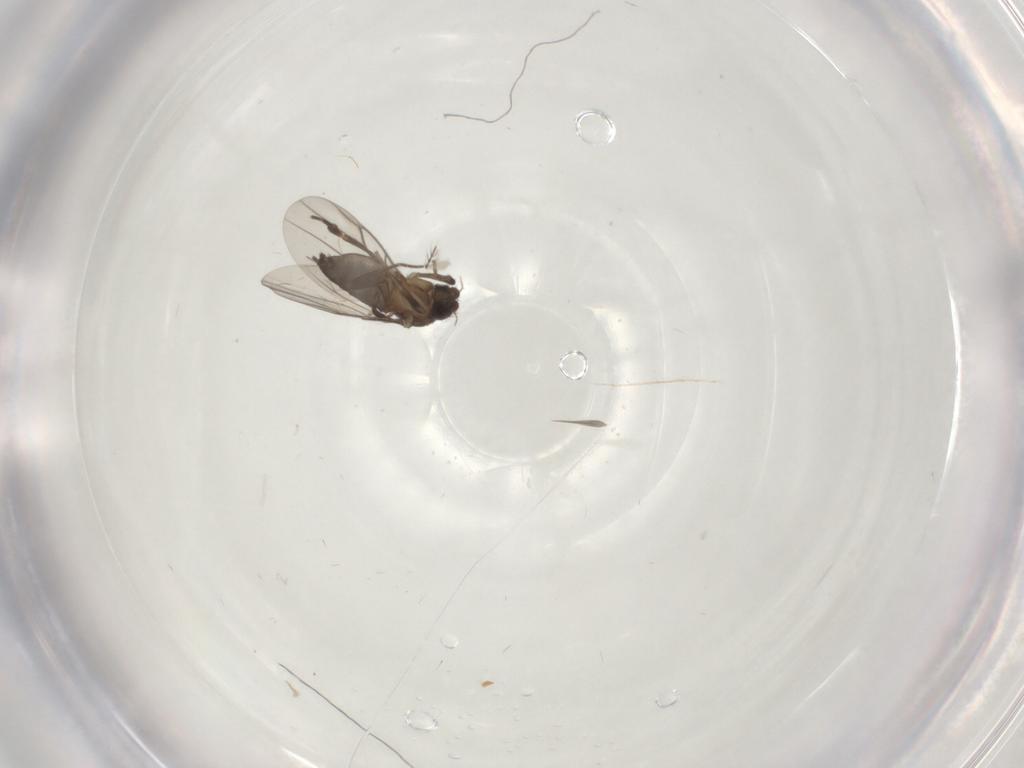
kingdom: Animalia
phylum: Arthropoda
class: Insecta
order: Diptera
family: Chironomidae
